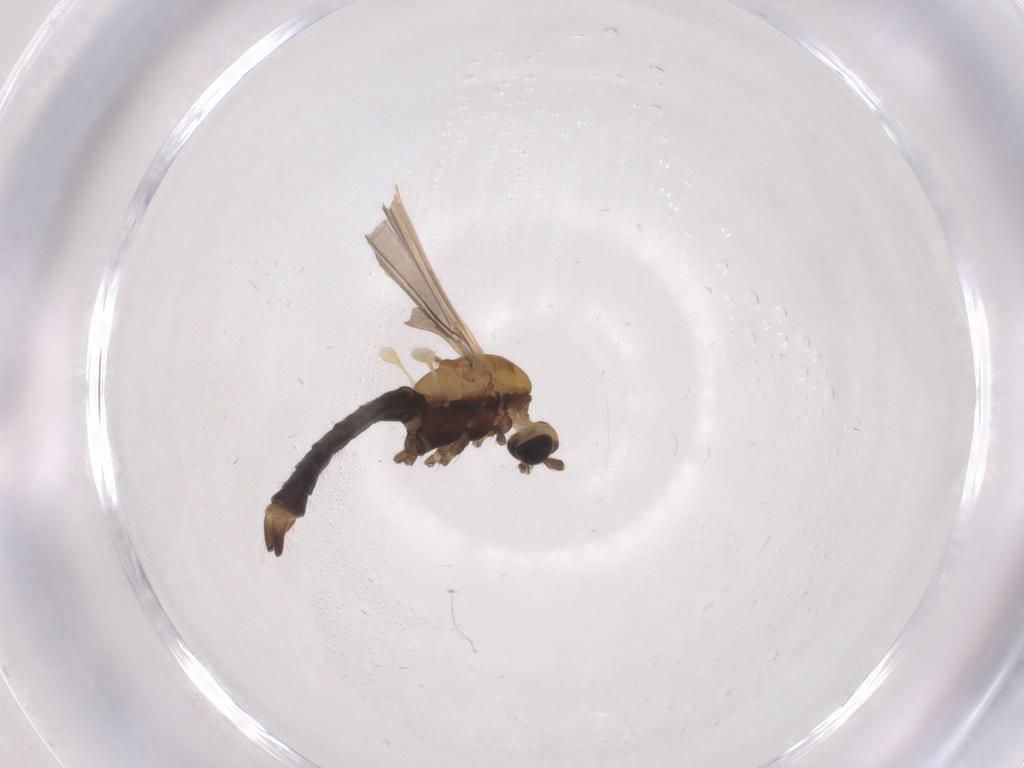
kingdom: Animalia
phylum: Arthropoda
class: Insecta
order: Diptera
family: Limoniidae
